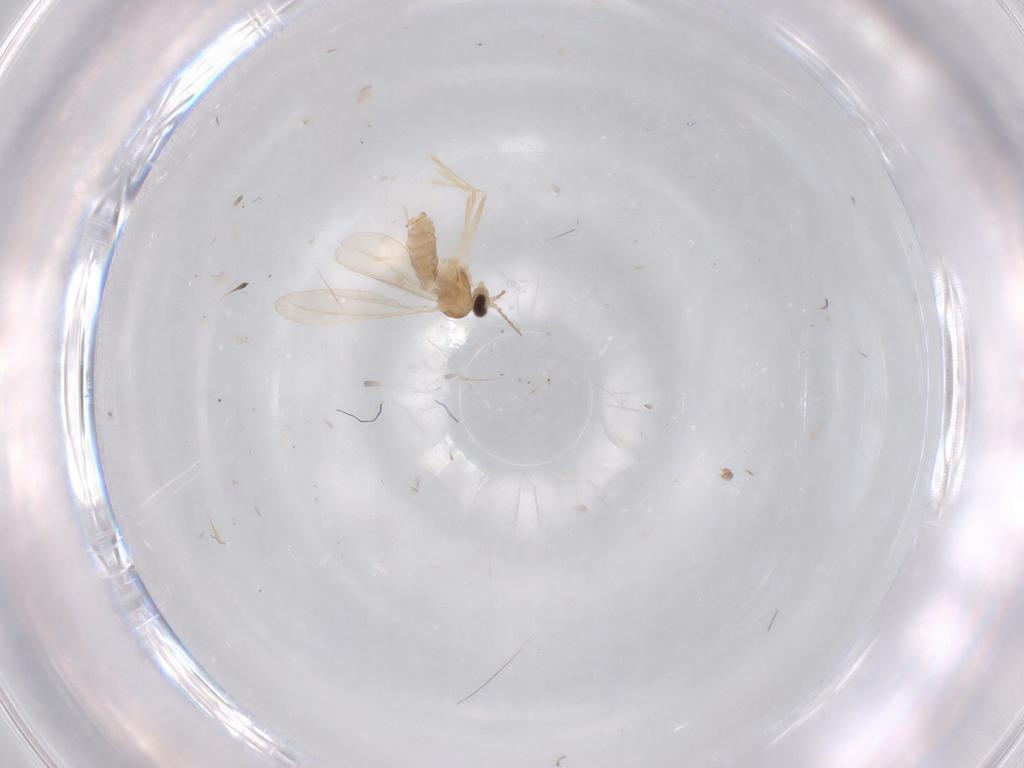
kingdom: Animalia
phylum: Arthropoda
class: Insecta
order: Diptera
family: Cecidomyiidae
